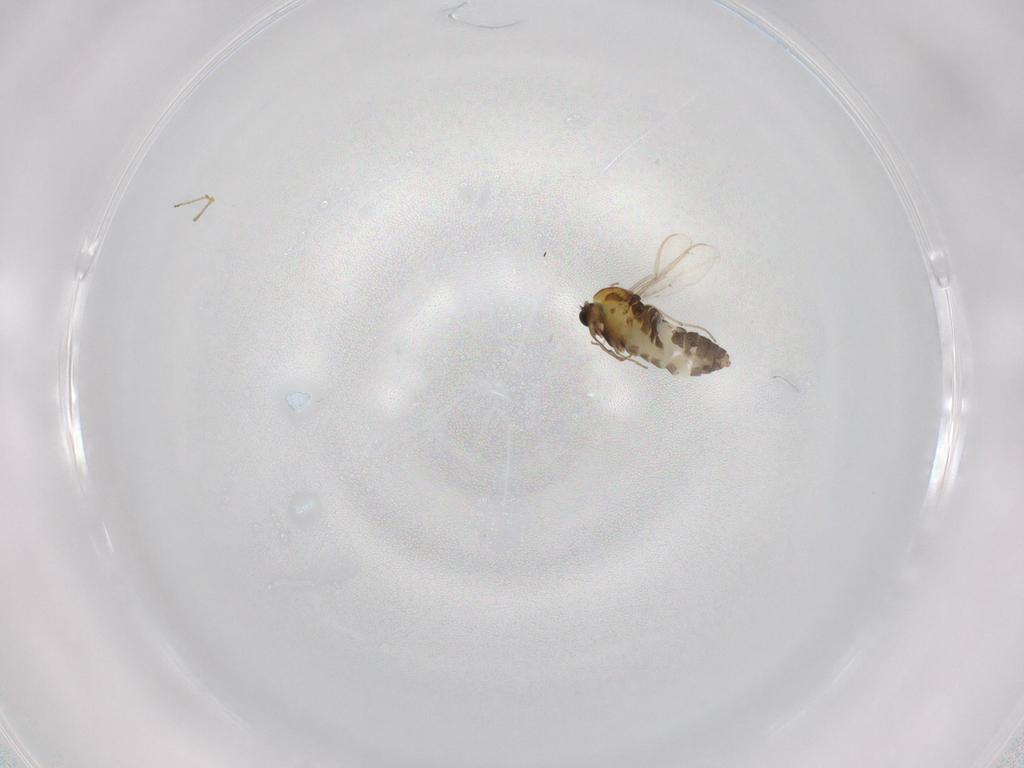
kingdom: Animalia
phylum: Arthropoda
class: Insecta
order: Diptera
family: Chironomidae
